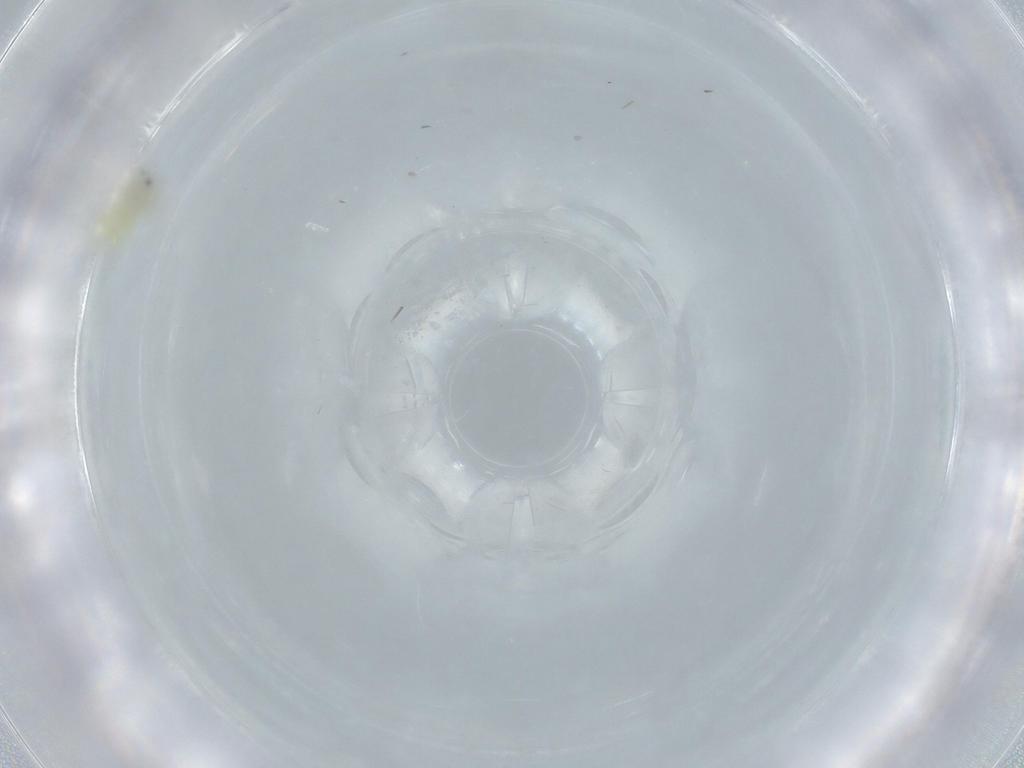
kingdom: Animalia
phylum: Arthropoda
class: Collembola
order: Entomobryomorpha
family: Entomobryidae
